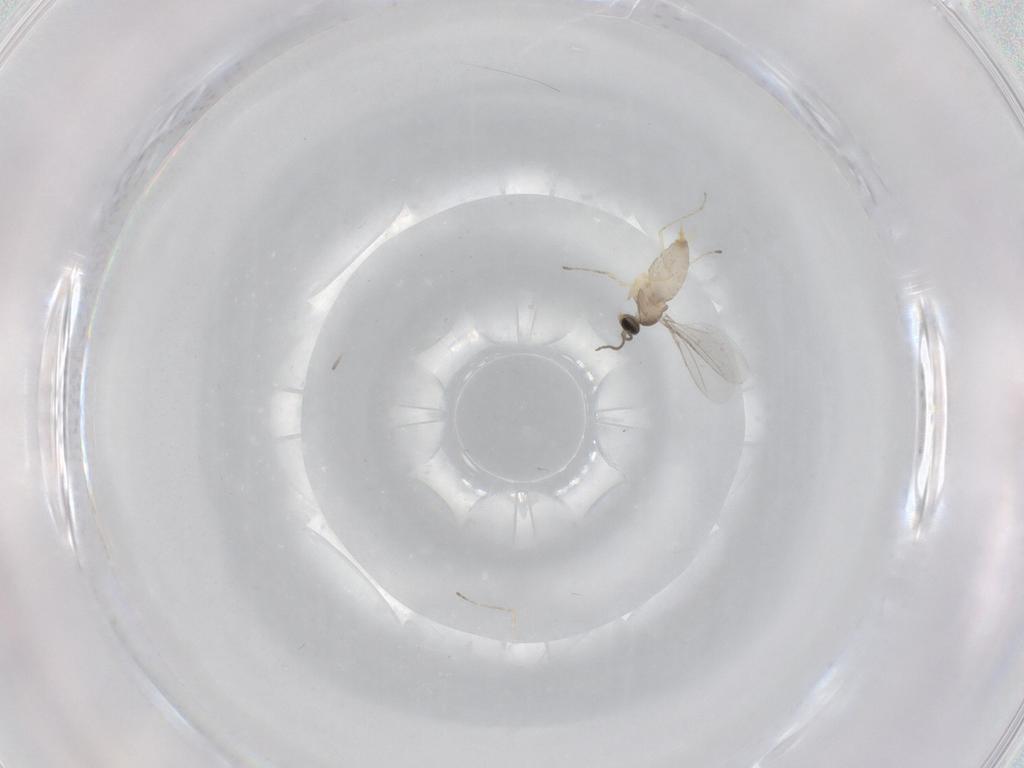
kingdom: Animalia
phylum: Arthropoda
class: Insecta
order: Diptera
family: Cecidomyiidae
